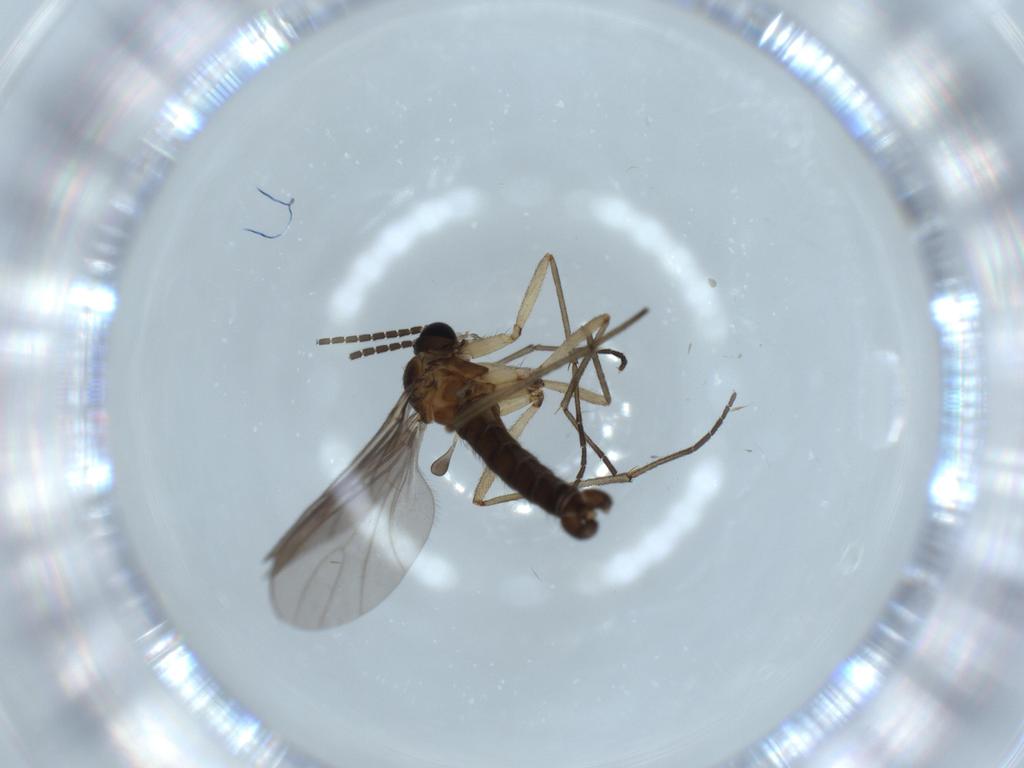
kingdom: Animalia
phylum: Arthropoda
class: Insecta
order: Diptera
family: Sciaridae
